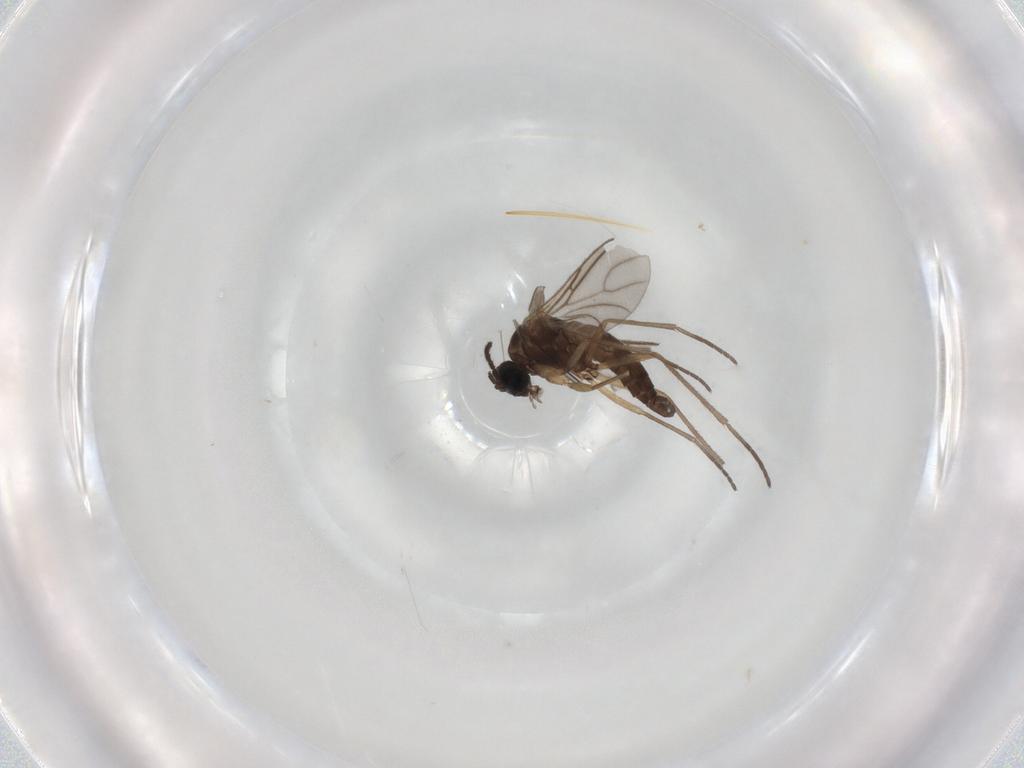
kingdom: Animalia
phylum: Arthropoda
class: Insecta
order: Diptera
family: Sciaridae
